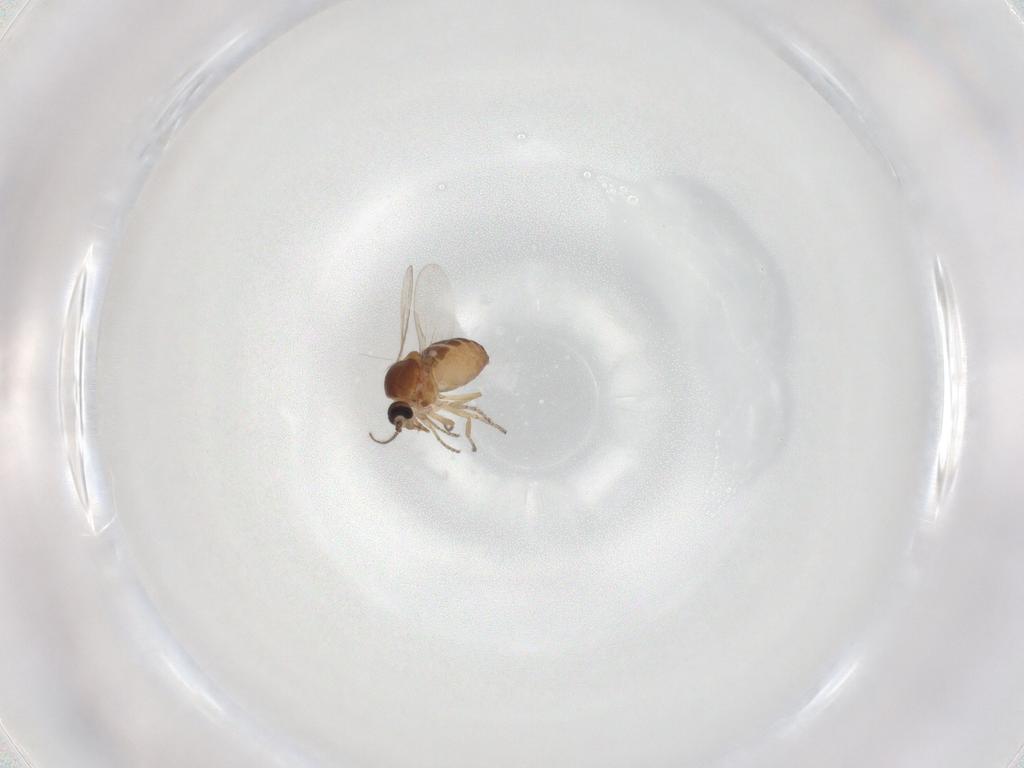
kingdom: Animalia
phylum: Arthropoda
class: Insecta
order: Diptera
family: Ceratopogonidae
